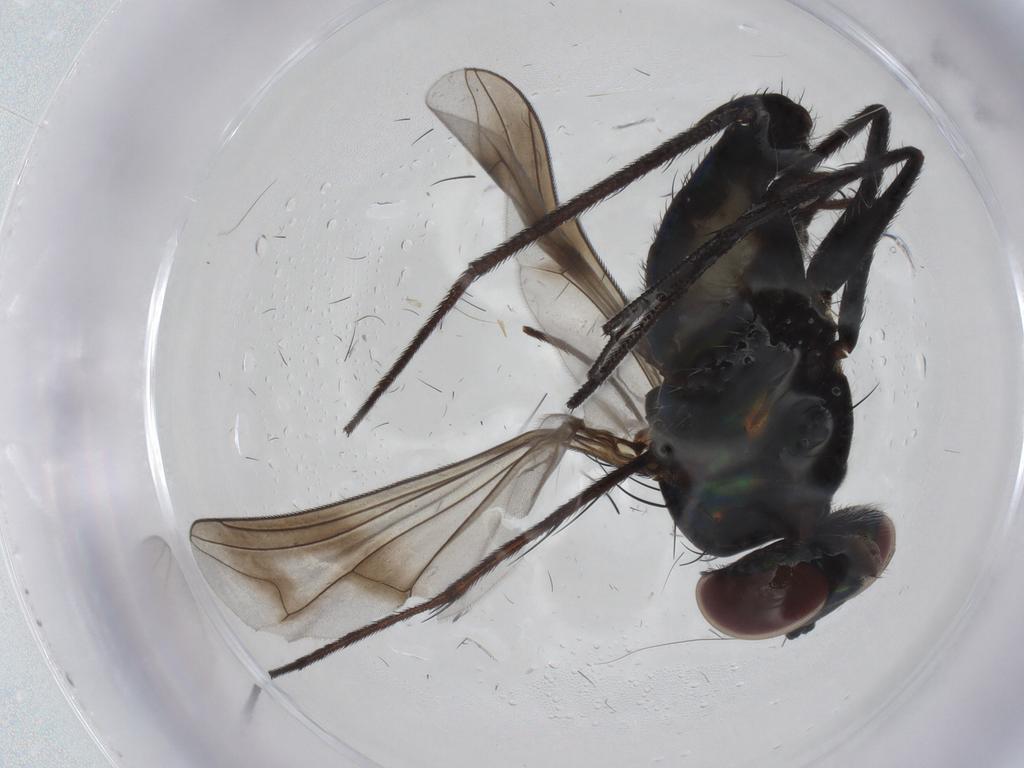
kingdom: Animalia
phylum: Arthropoda
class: Insecta
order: Diptera
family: Dolichopodidae
